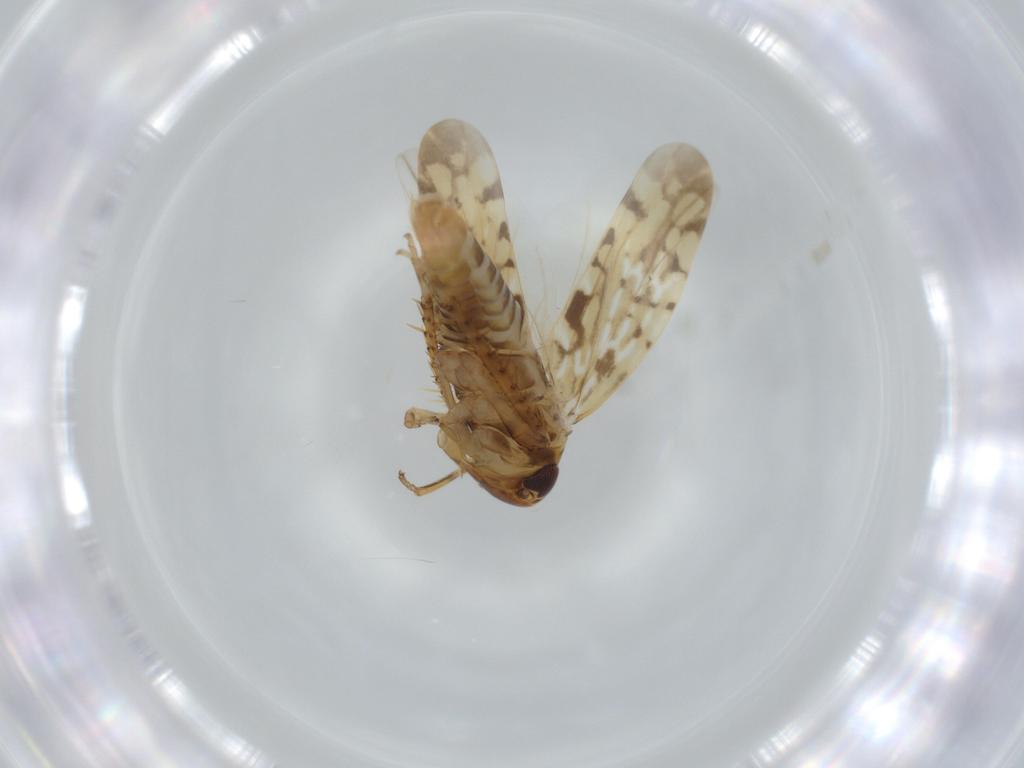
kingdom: Animalia
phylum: Arthropoda
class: Insecta
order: Hemiptera
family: Cicadellidae
